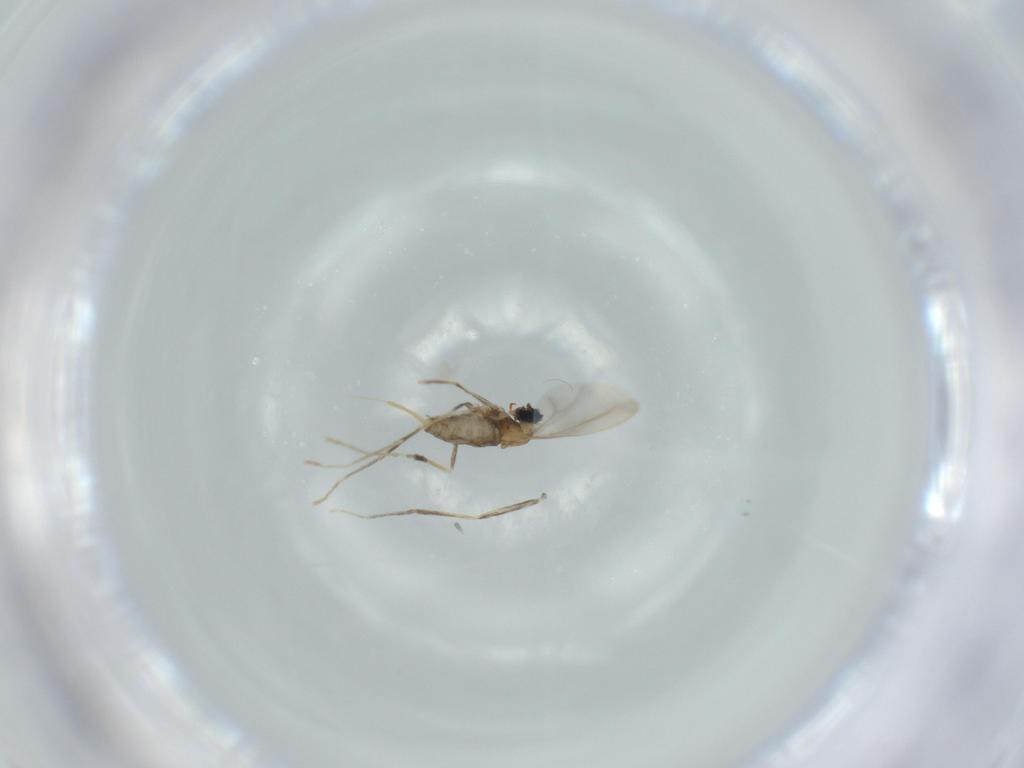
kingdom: Animalia
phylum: Arthropoda
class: Insecta
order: Diptera
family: Cecidomyiidae
